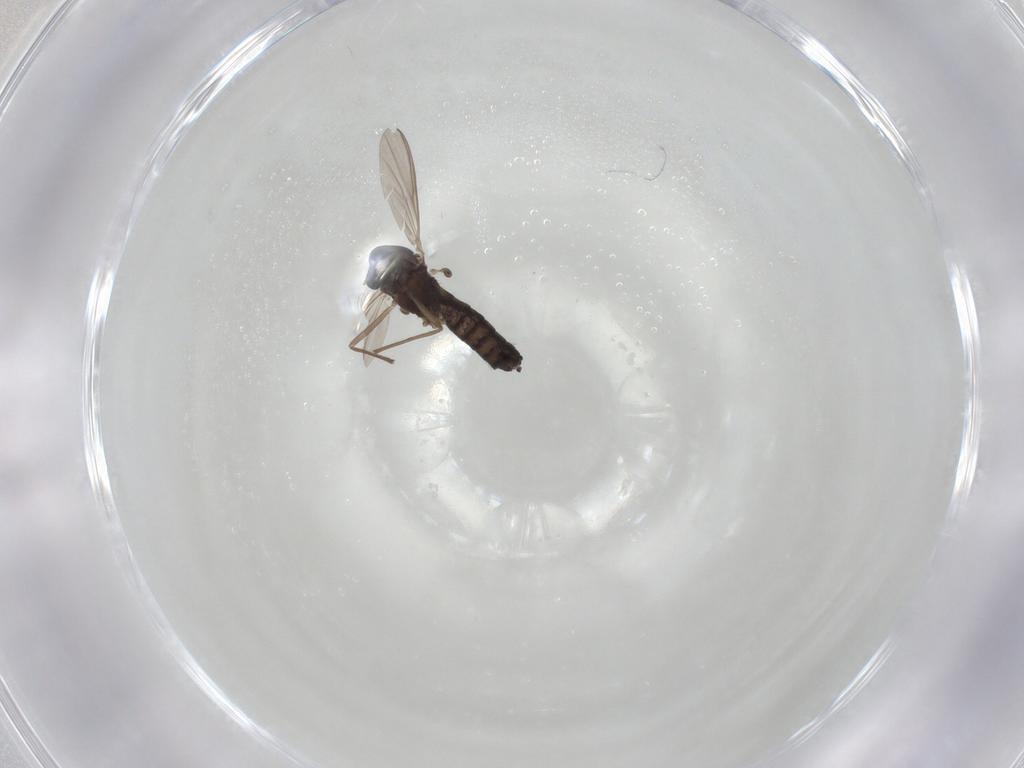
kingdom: Animalia
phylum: Arthropoda
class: Insecta
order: Diptera
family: Chironomidae
